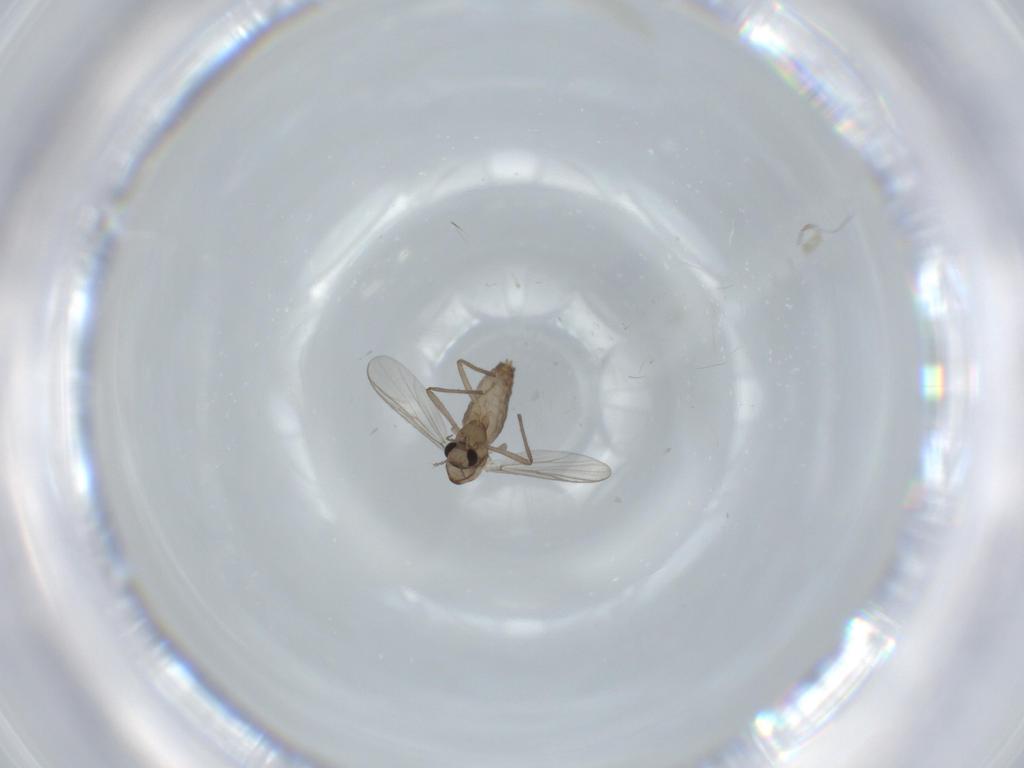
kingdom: Animalia
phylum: Arthropoda
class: Insecta
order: Diptera
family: Chironomidae
